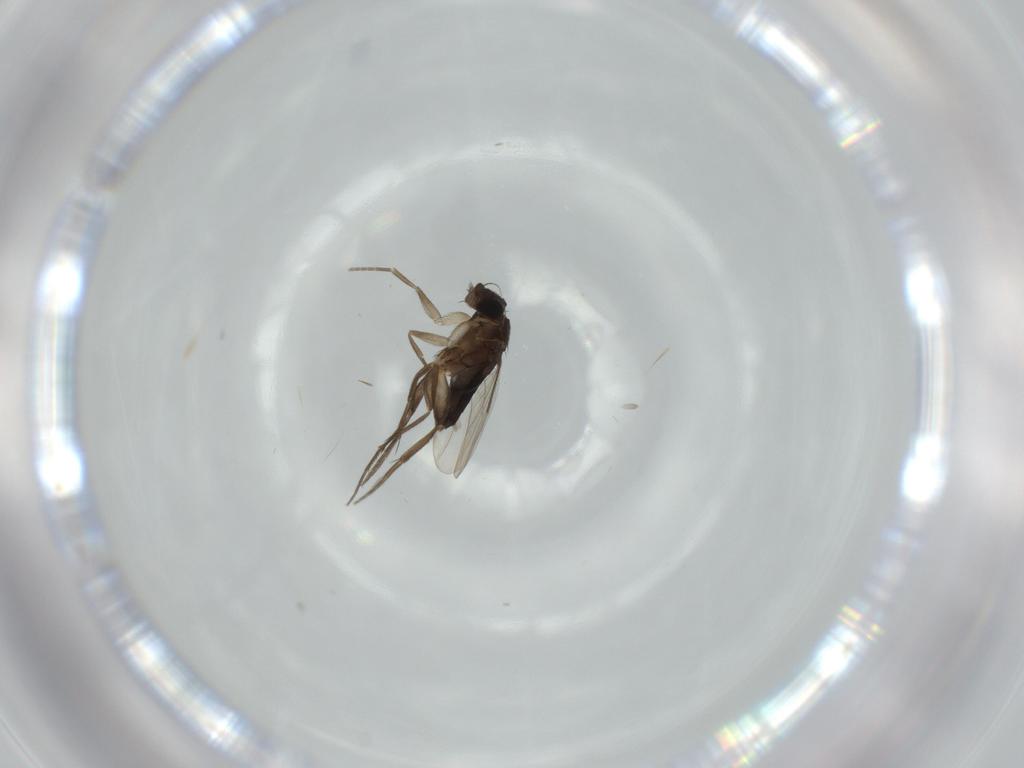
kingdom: Animalia
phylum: Arthropoda
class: Insecta
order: Diptera
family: Phoridae
